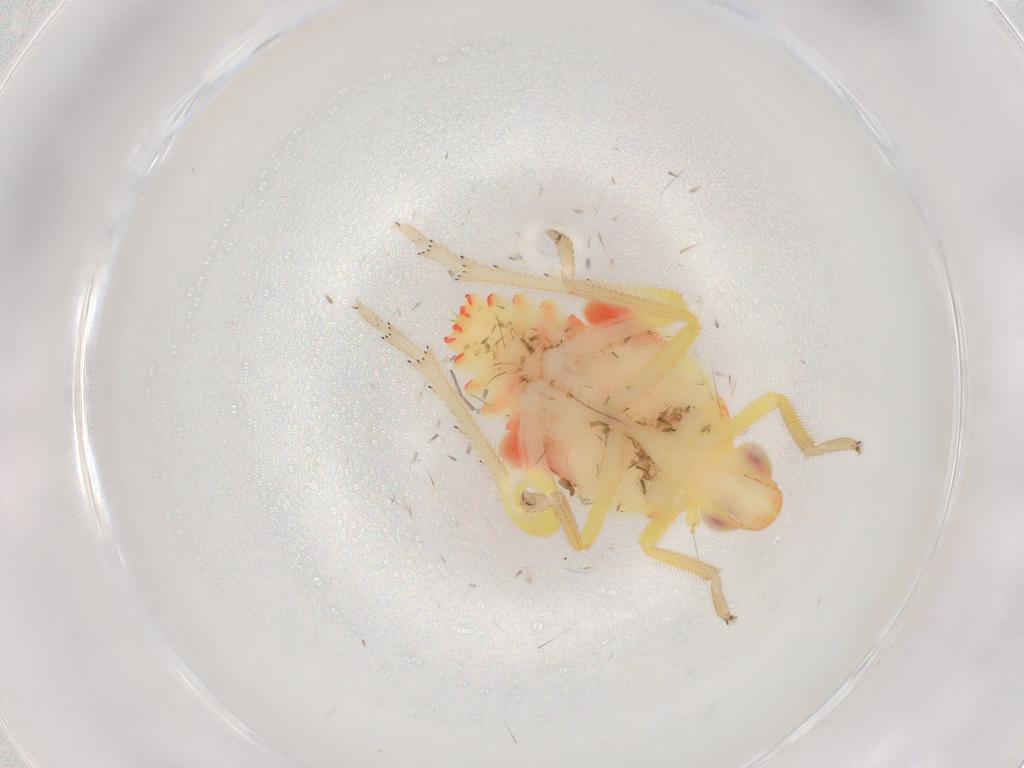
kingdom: Animalia
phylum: Arthropoda
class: Insecta
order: Hemiptera
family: Tropiduchidae
